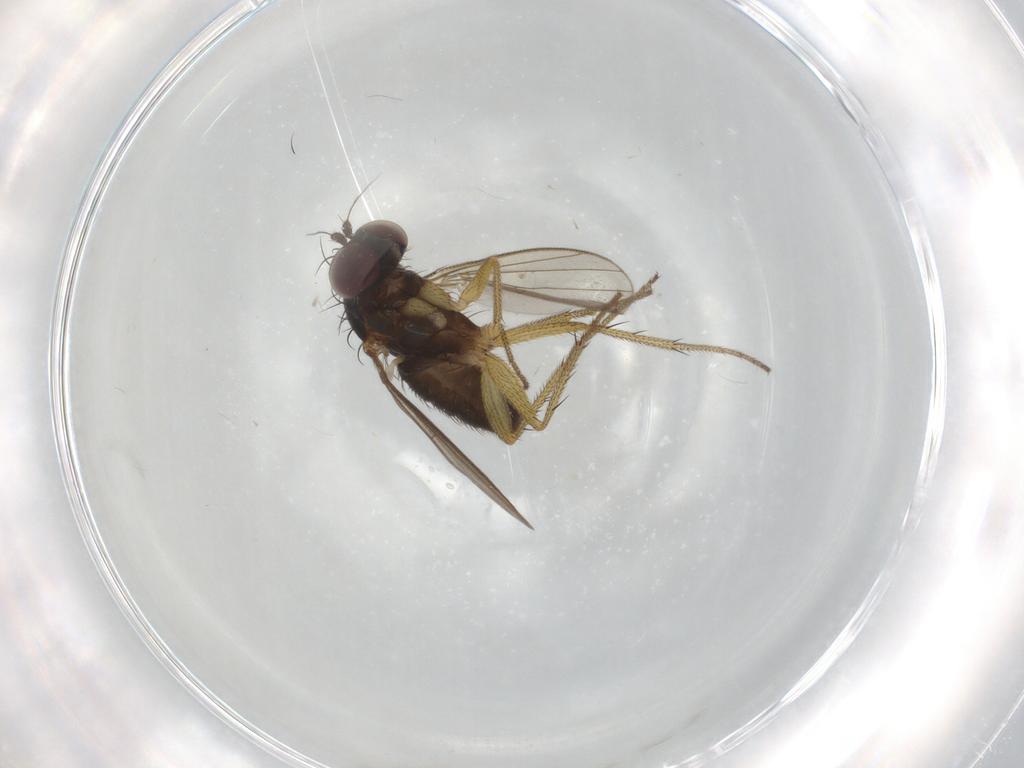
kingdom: Animalia
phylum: Arthropoda
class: Insecta
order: Diptera
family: Chironomidae
